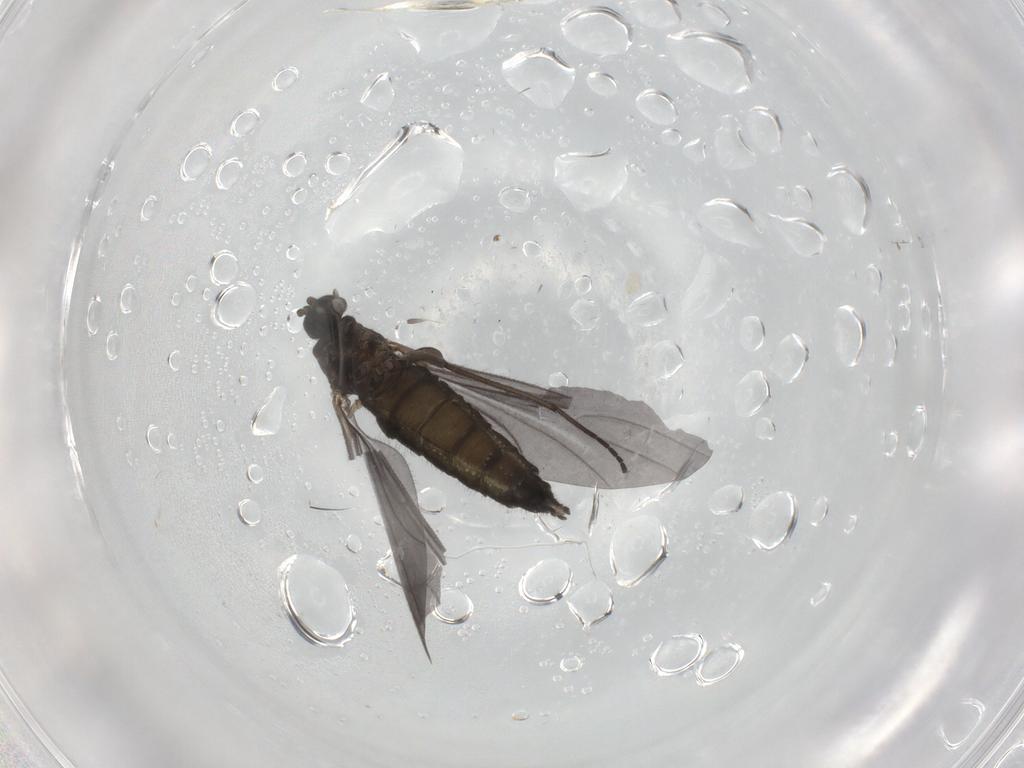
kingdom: Animalia
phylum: Arthropoda
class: Insecta
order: Diptera
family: Sciaridae
